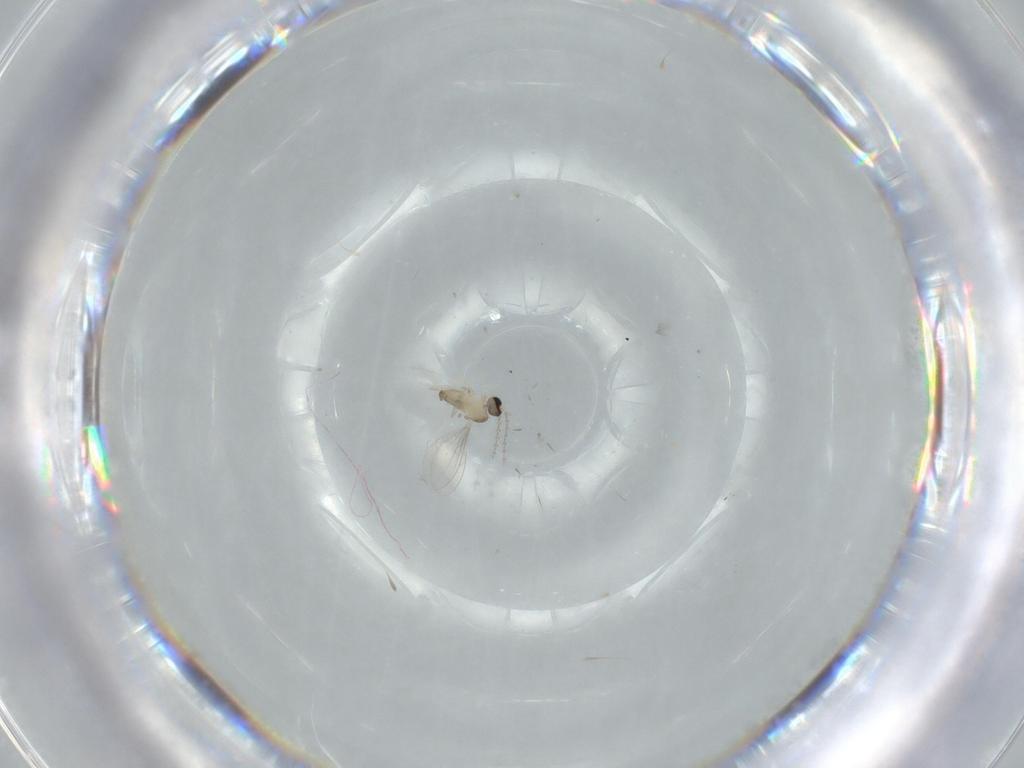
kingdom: Animalia
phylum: Arthropoda
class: Insecta
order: Diptera
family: Cecidomyiidae
